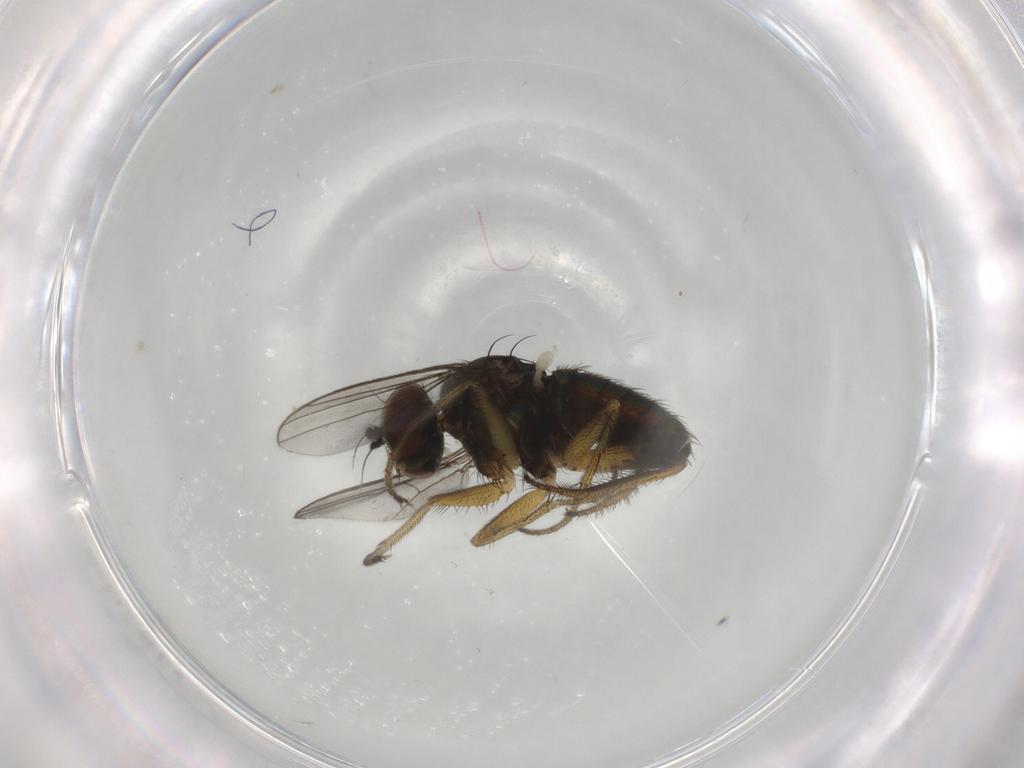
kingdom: Animalia
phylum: Arthropoda
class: Insecta
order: Diptera
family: Dolichopodidae
